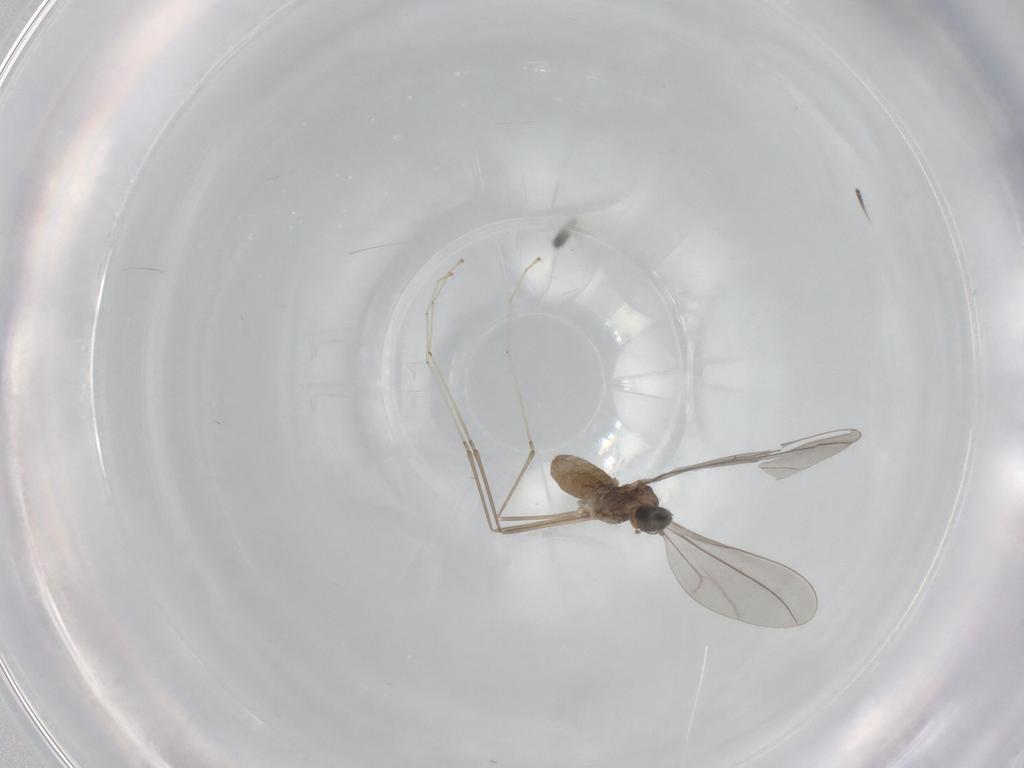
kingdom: Animalia
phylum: Arthropoda
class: Insecta
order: Diptera
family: Cecidomyiidae
